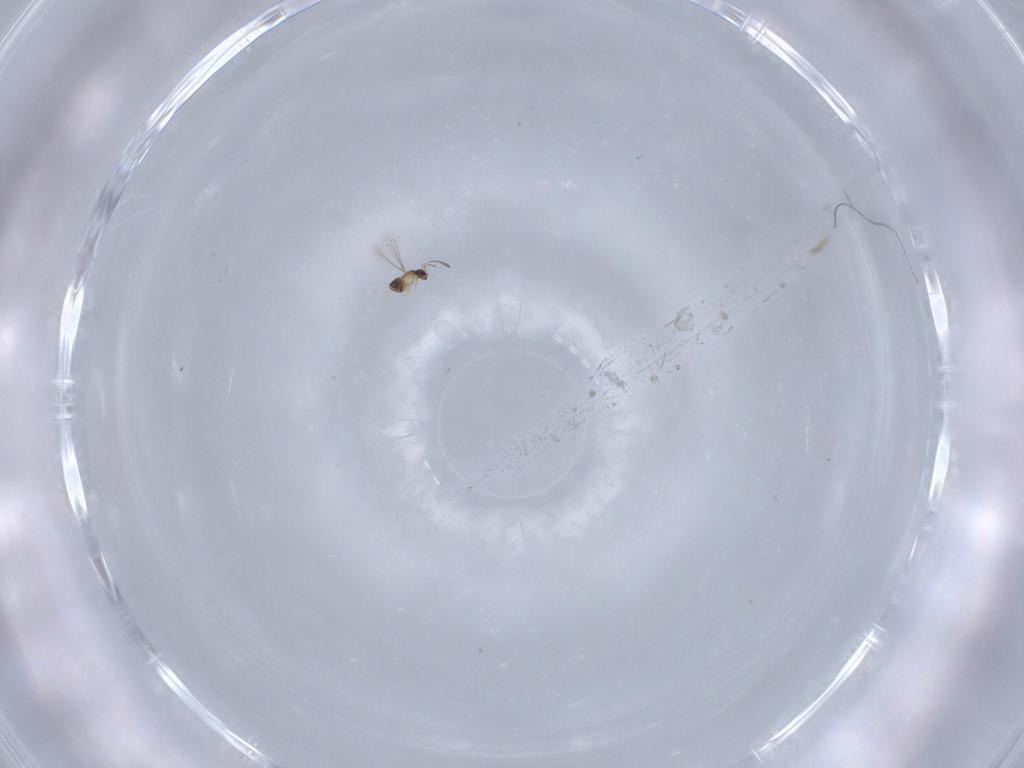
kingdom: Animalia
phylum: Arthropoda
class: Insecta
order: Hymenoptera
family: Scelionidae
